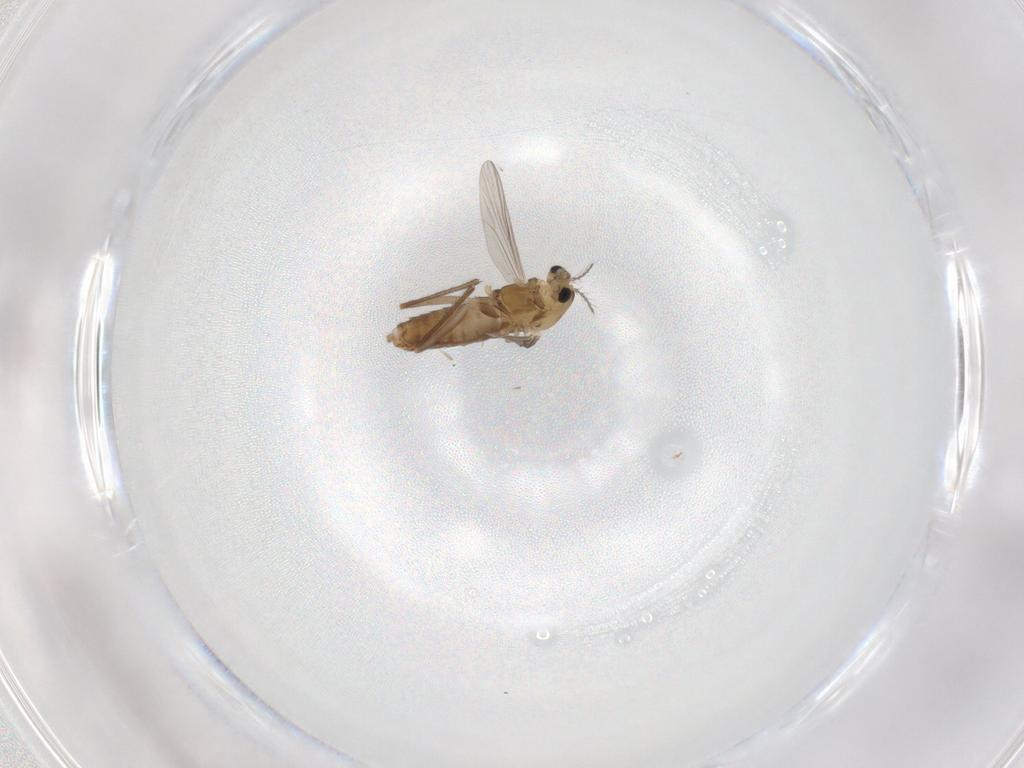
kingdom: Animalia
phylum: Arthropoda
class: Insecta
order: Diptera
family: Chironomidae
